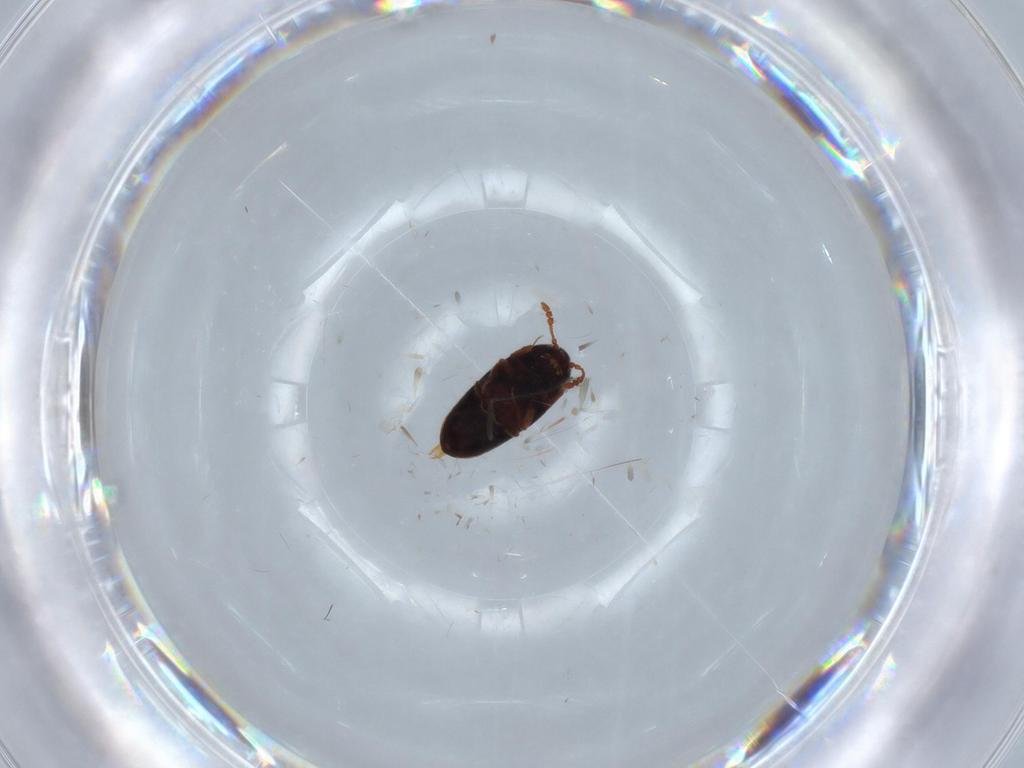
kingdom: Animalia
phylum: Arthropoda
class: Insecta
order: Coleoptera
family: Throscidae
